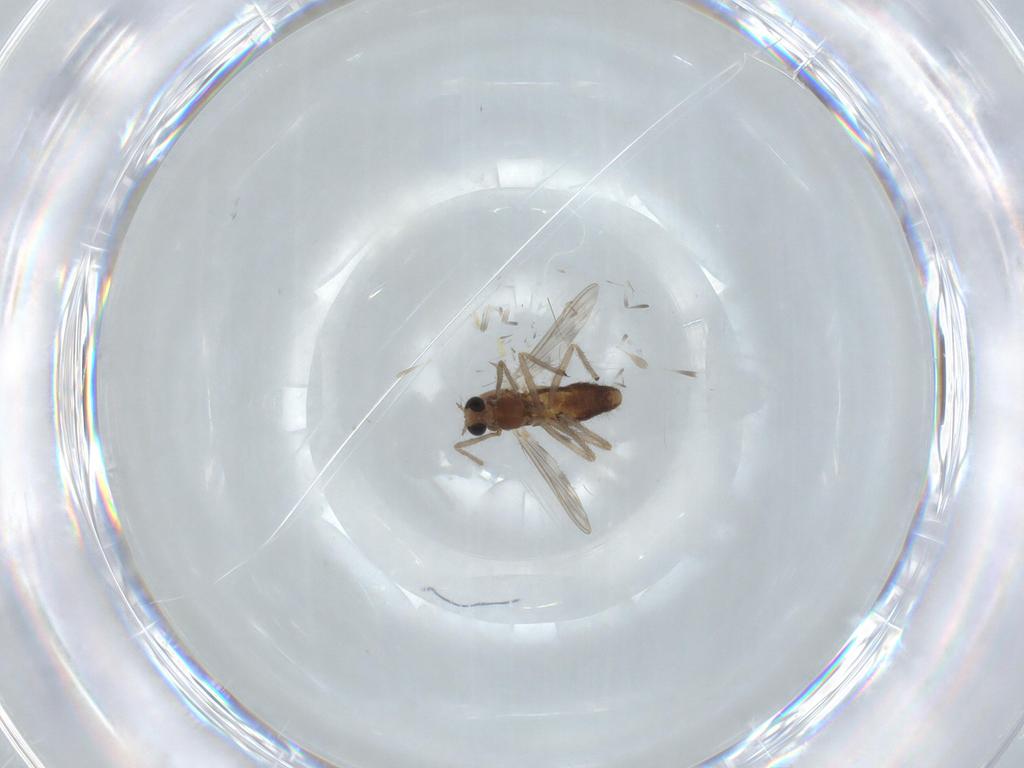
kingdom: Animalia
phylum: Arthropoda
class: Insecta
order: Diptera
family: Chironomidae
